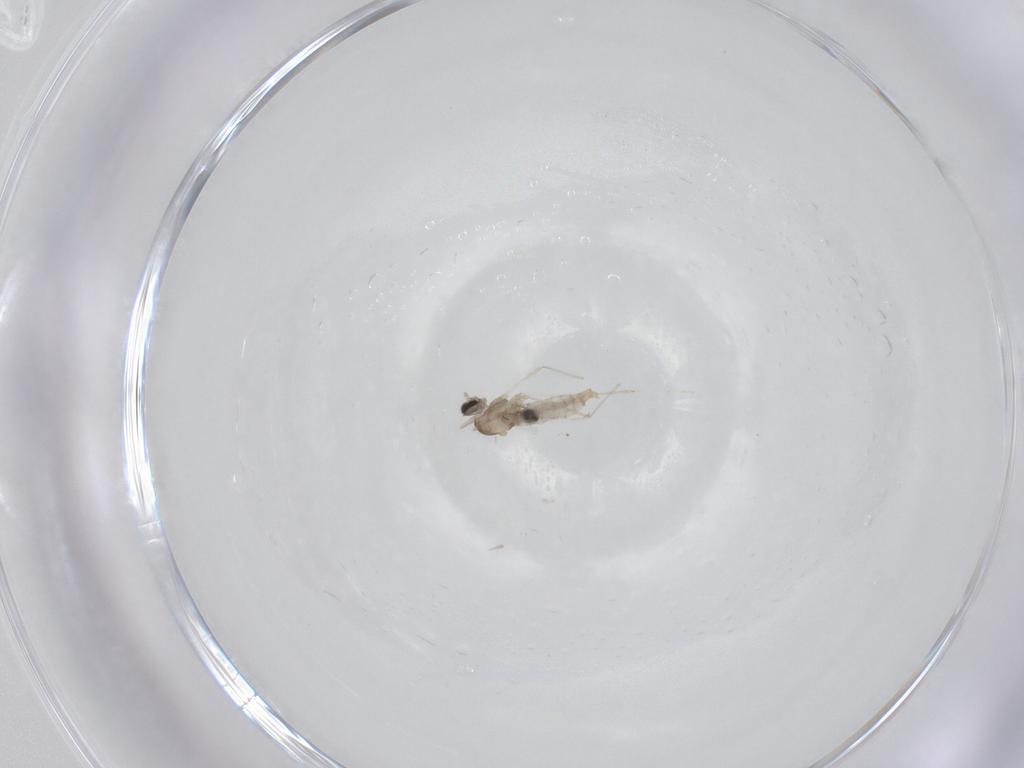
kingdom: Animalia
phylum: Arthropoda
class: Insecta
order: Diptera
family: Cecidomyiidae
